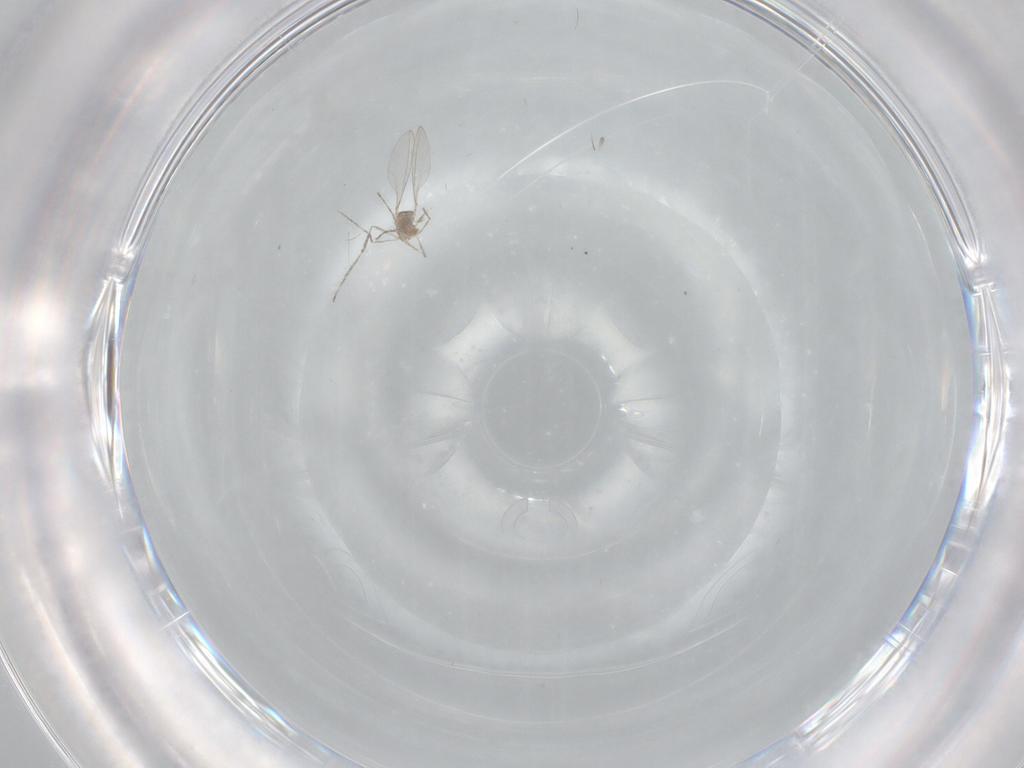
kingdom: Animalia
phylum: Arthropoda
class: Insecta
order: Diptera
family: Cecidomyiidae
